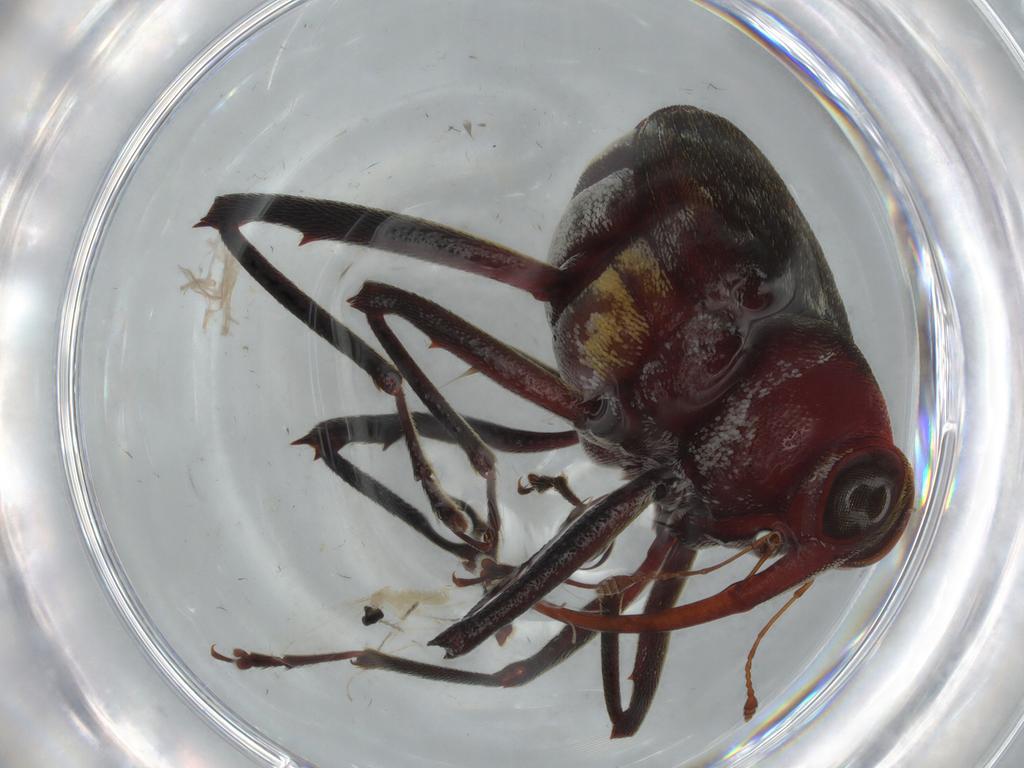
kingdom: Animalia
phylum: Arthropoda
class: Insecta
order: Coleoptera
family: Curculionidae
